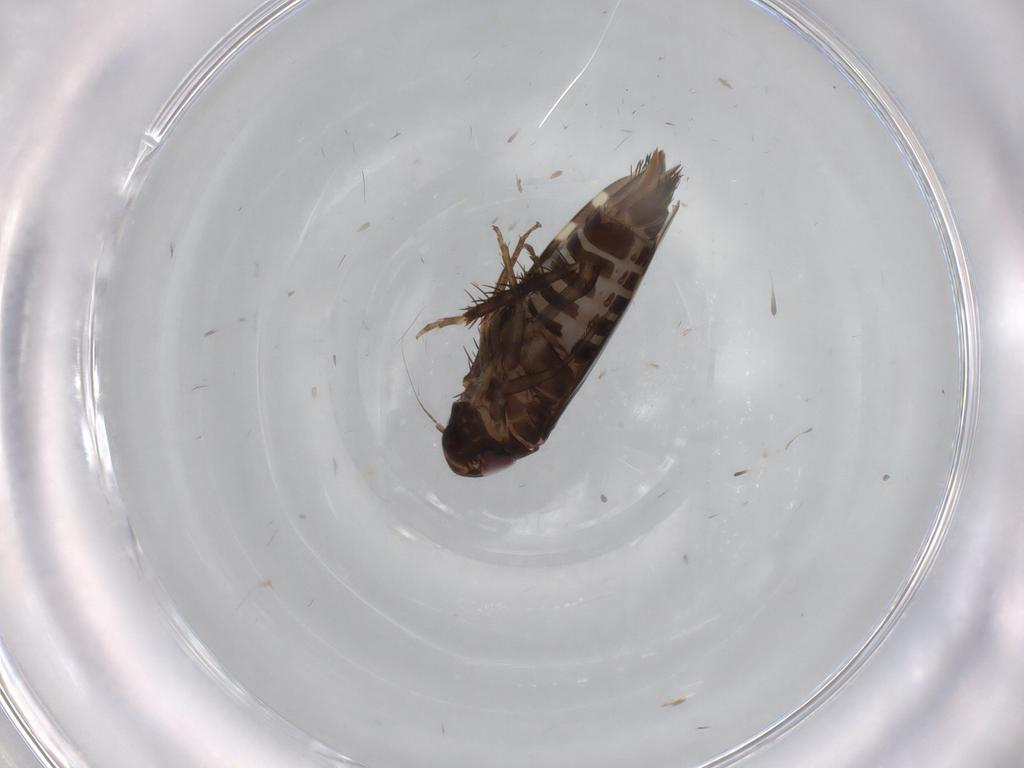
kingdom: Animalia
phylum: Arthropoda
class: Insecta
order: Hemiptera
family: Cicadellidae
